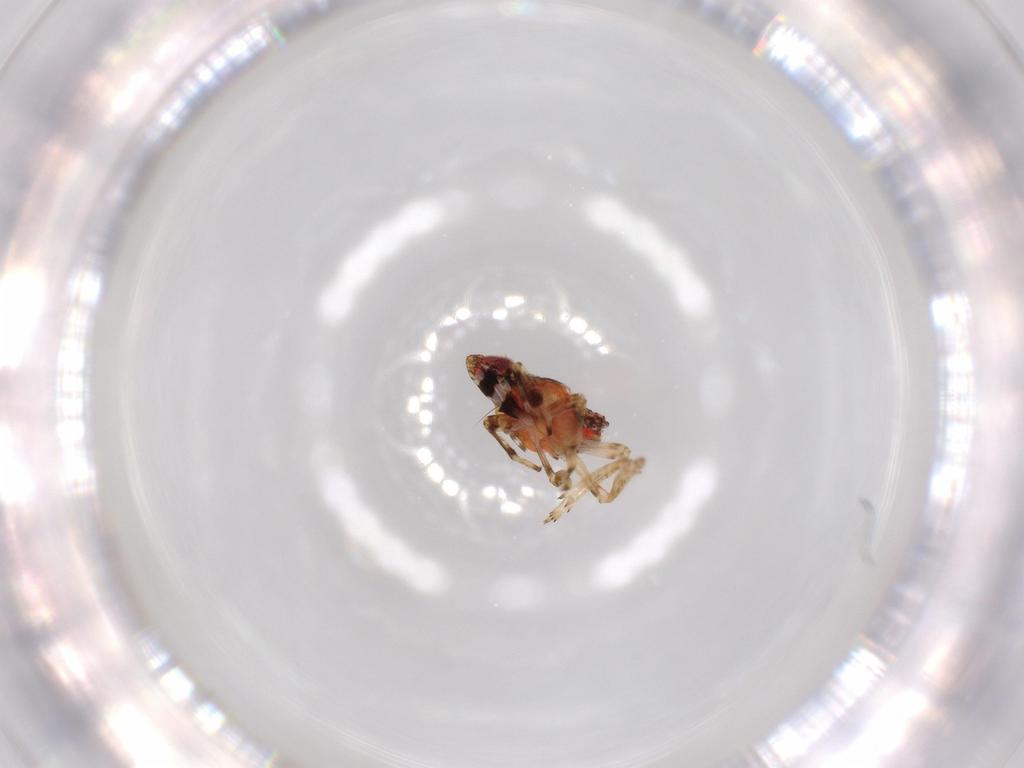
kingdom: Animalia
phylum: Arthropoda
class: Insecta
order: Hemiptera
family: Issidae
